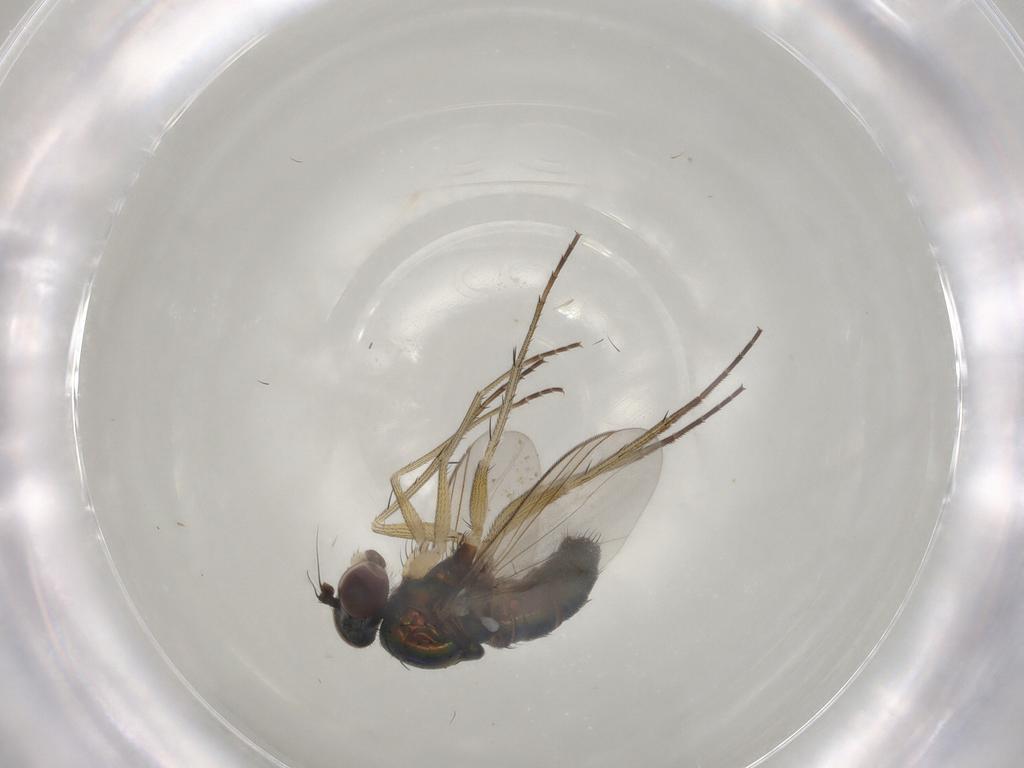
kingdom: Animalia
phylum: Arthropoda
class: Insecta
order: Diptera
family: Dolichopodidae
